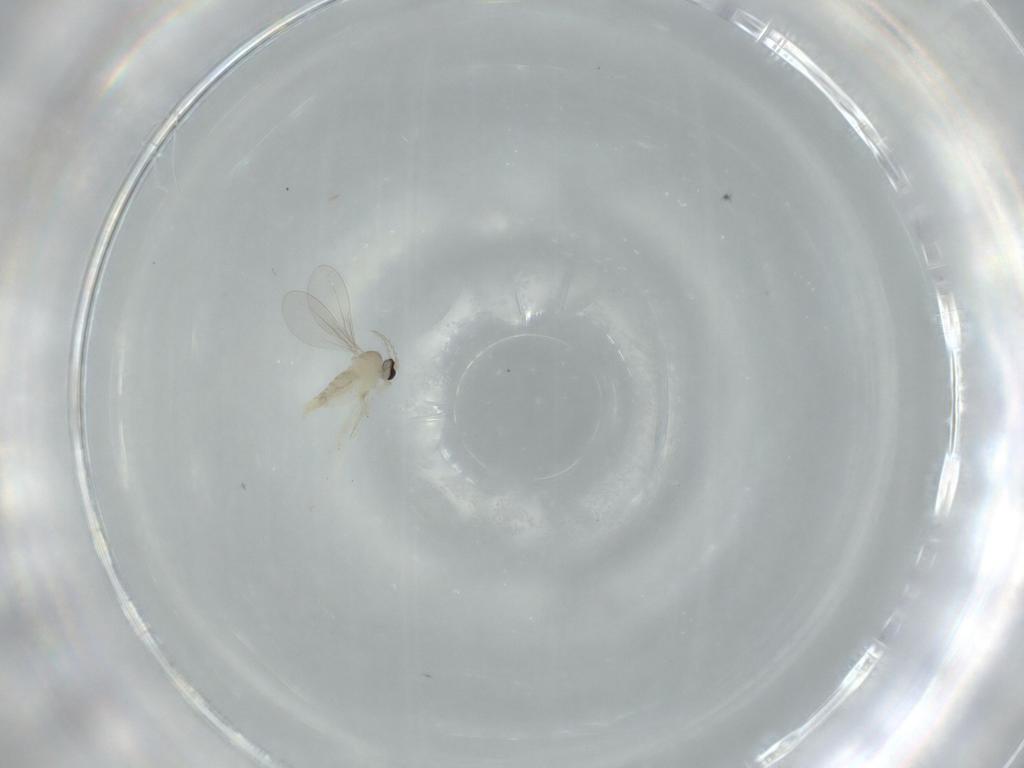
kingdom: Animalia
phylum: Arthropoda
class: Insecta
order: Diptera
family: Cecidomyiidae
